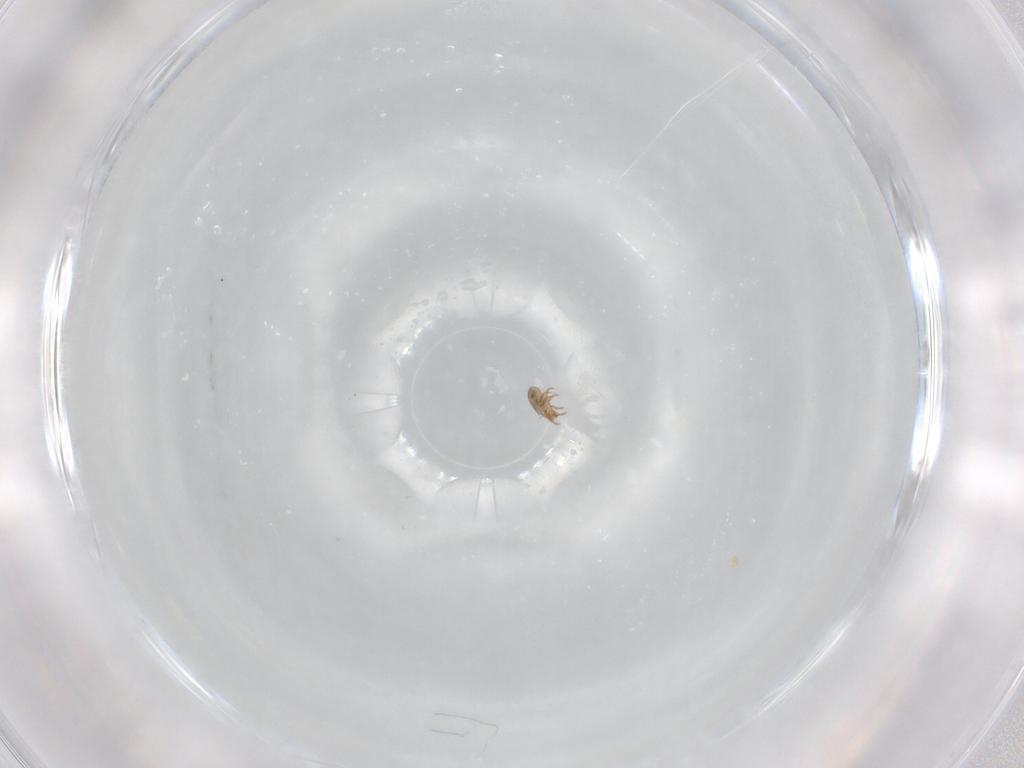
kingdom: Animalia
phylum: Arthropoda
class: Arachnida
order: Sarcoptiformes
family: Humerobatidae
